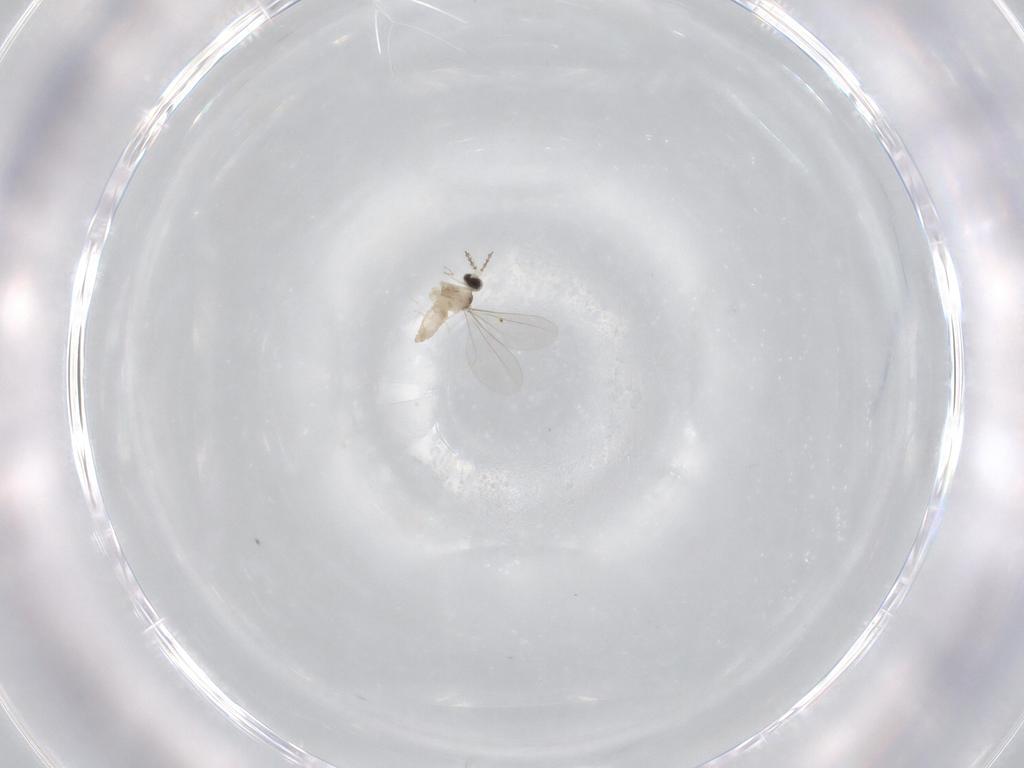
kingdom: Animalia
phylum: Arthropoda
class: Insecta
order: Diptera
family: Cecidomyiidae
